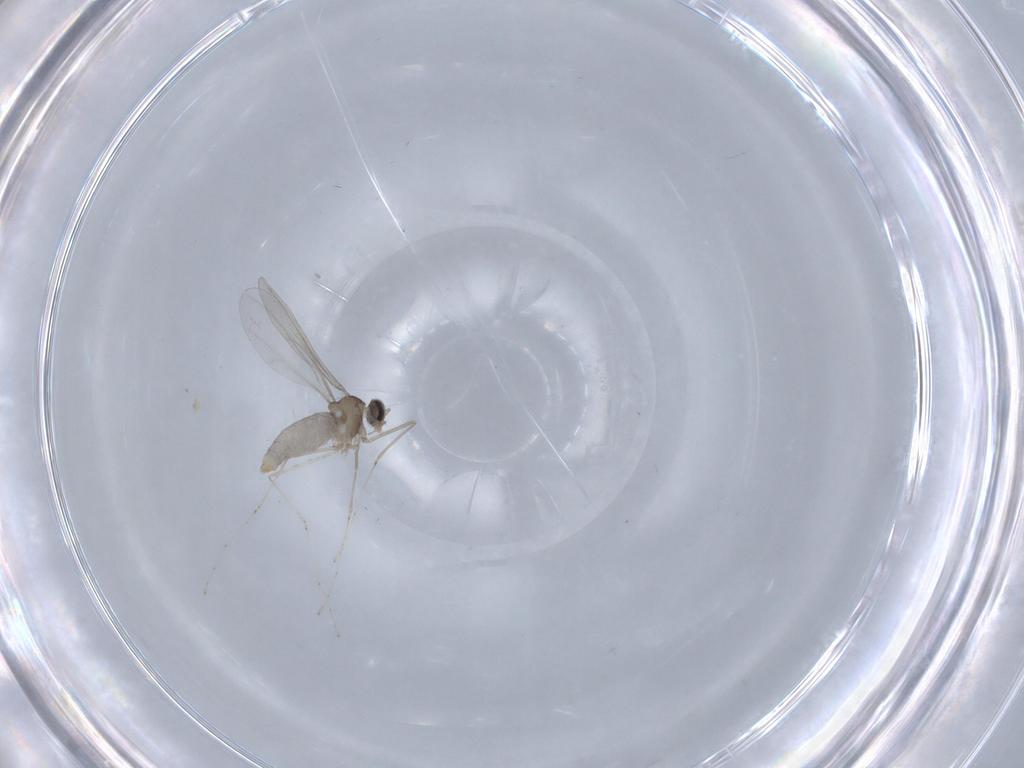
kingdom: Animalia
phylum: Arthropoda
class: Insecta
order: Diptera
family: Cecidomyiidae
